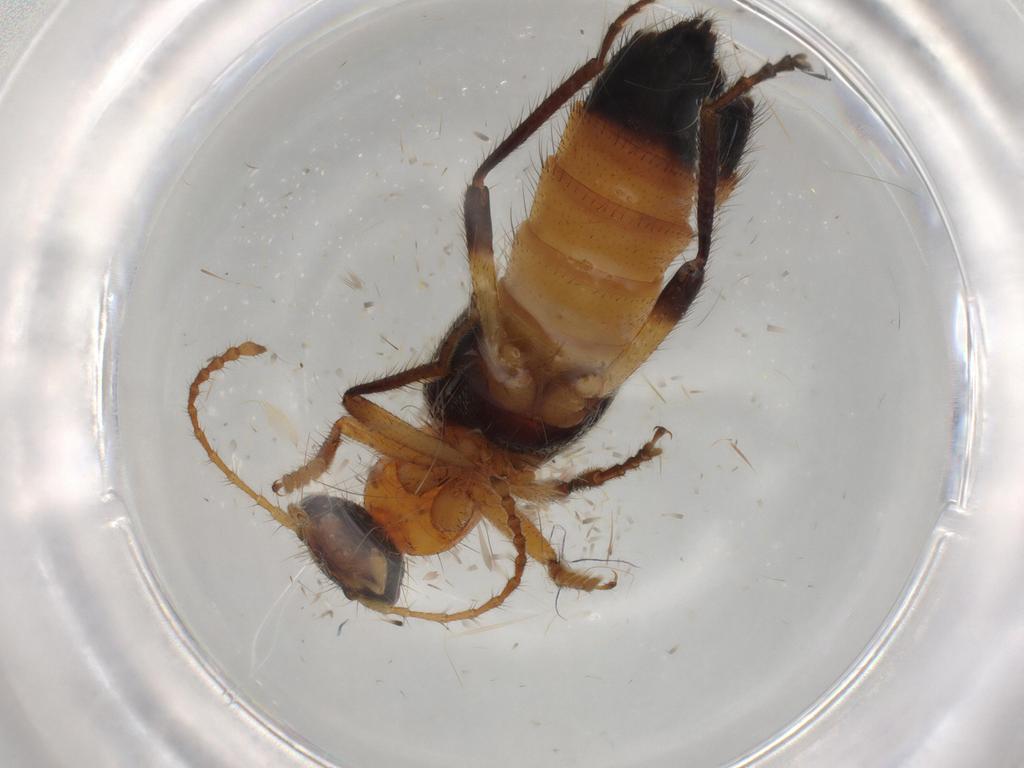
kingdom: Animalia
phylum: Arthropoda
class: Insecta
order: Coleoptera
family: Staphylinidae
